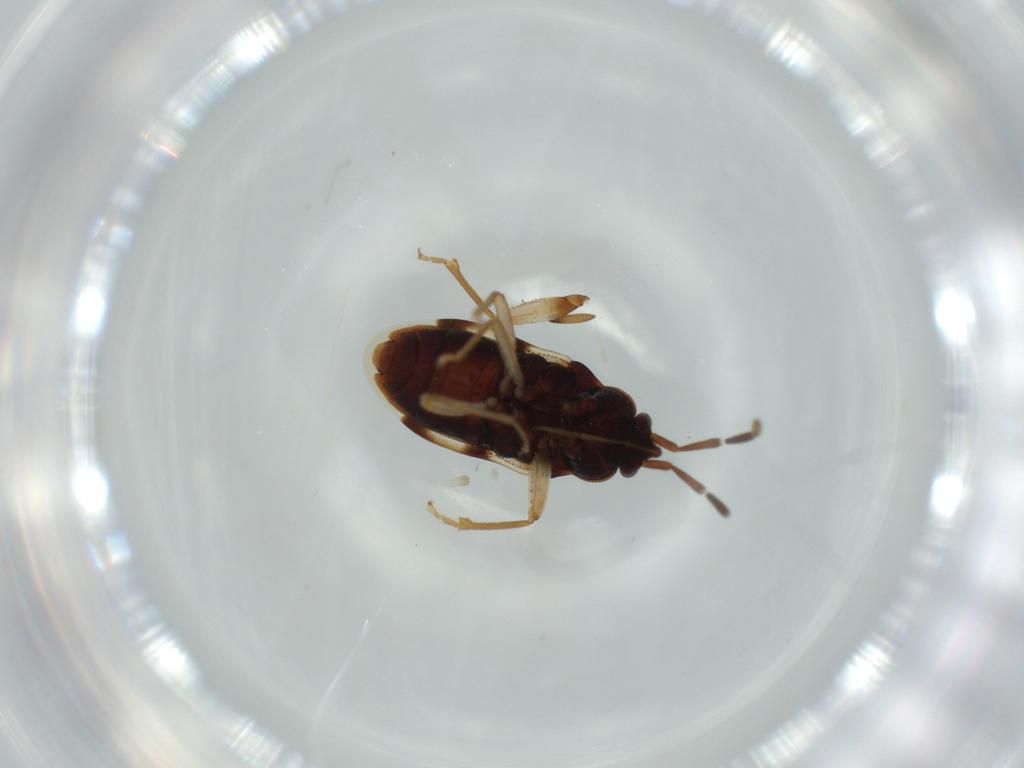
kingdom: Animalia
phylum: Arthropoda
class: Insecta
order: Hemiptera
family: Rhyparochromidae
